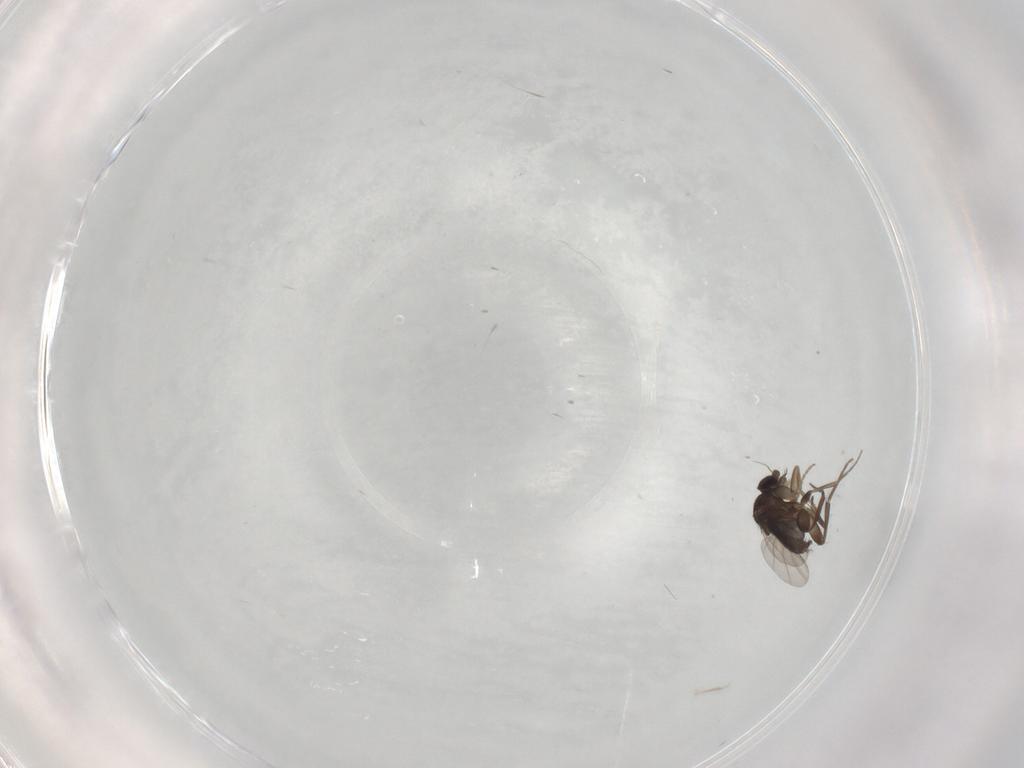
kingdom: Animalia
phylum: Arthropoda
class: Insecta
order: Diptera
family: Phoridae
